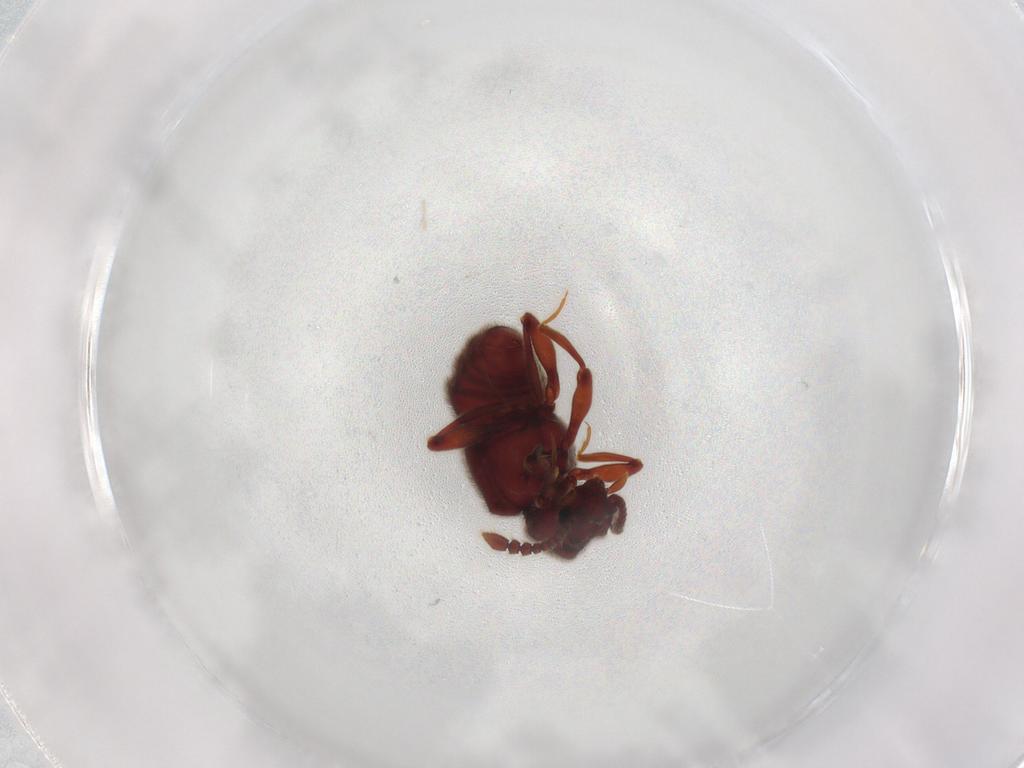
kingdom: Animalia
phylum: Arthropoda
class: Insecta
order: Coleoptera
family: Staphylinidae
